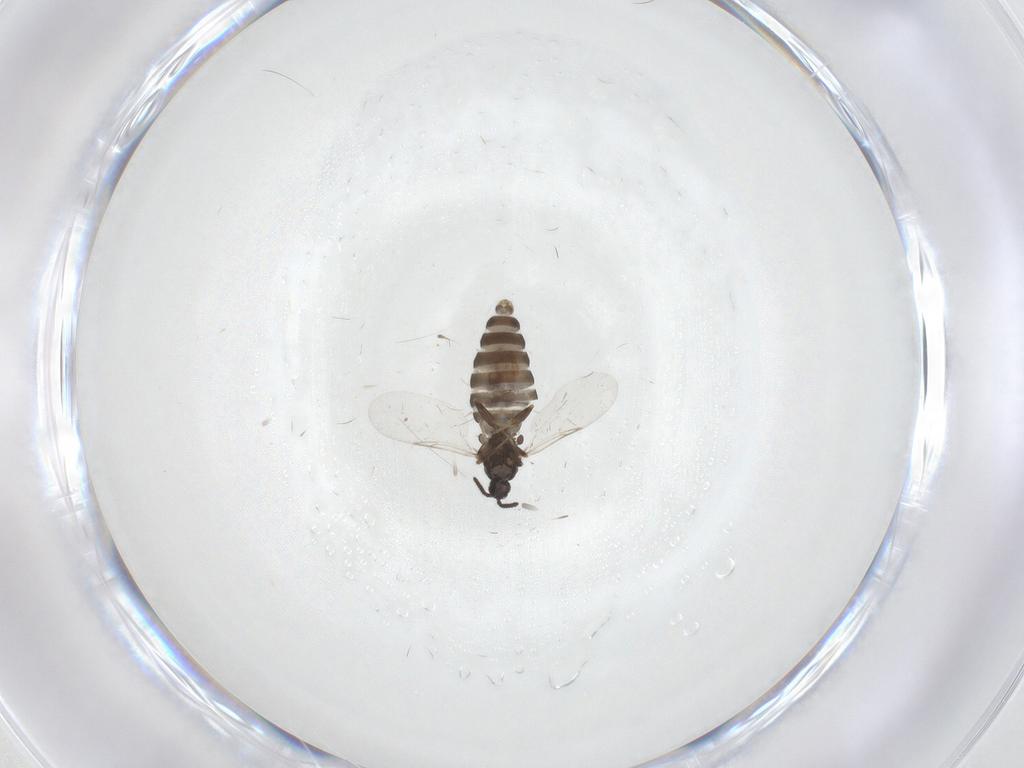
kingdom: Animalia
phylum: Arthropoda
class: Insecta
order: Diptera
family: Scatopsidae
